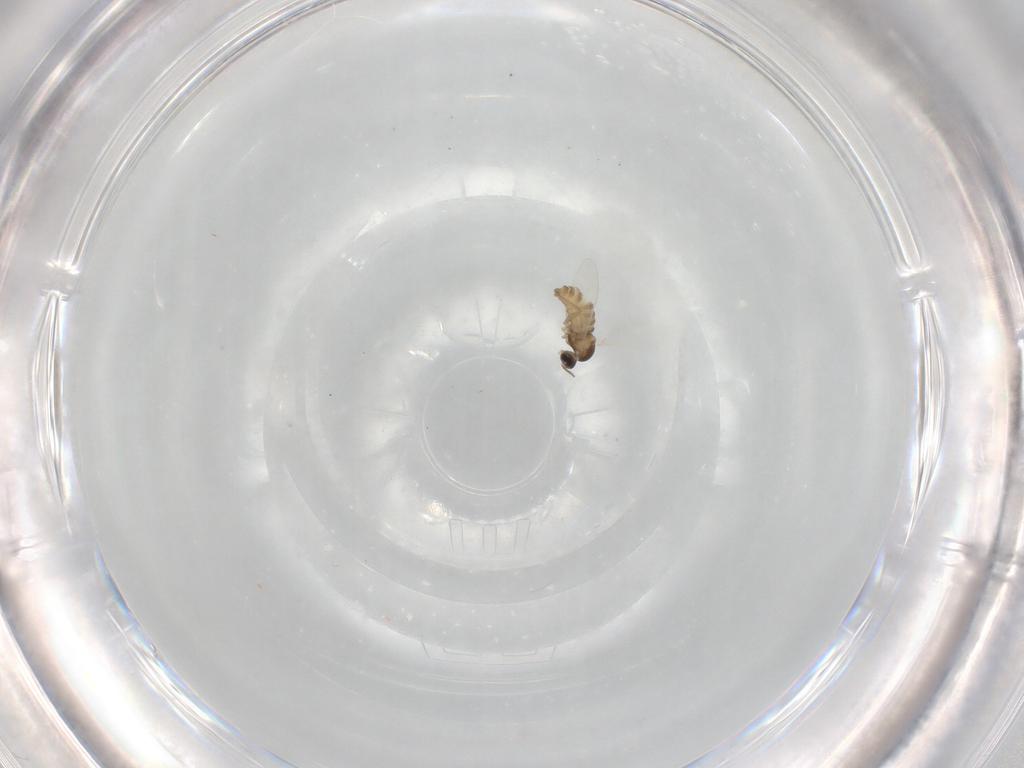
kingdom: Animalia
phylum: Arthropoda
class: Insecta
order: Diptera
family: Cecidomyiidae
